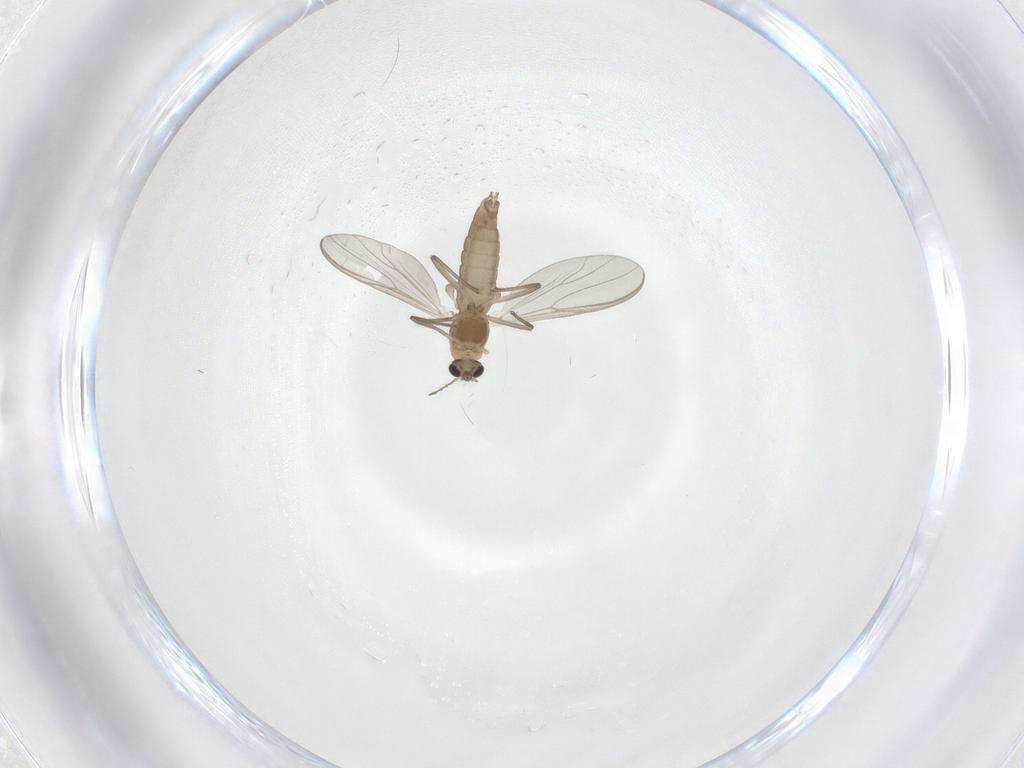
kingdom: Animalia
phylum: Arthropoda
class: Insecta
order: Diptera
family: Chironomidae
